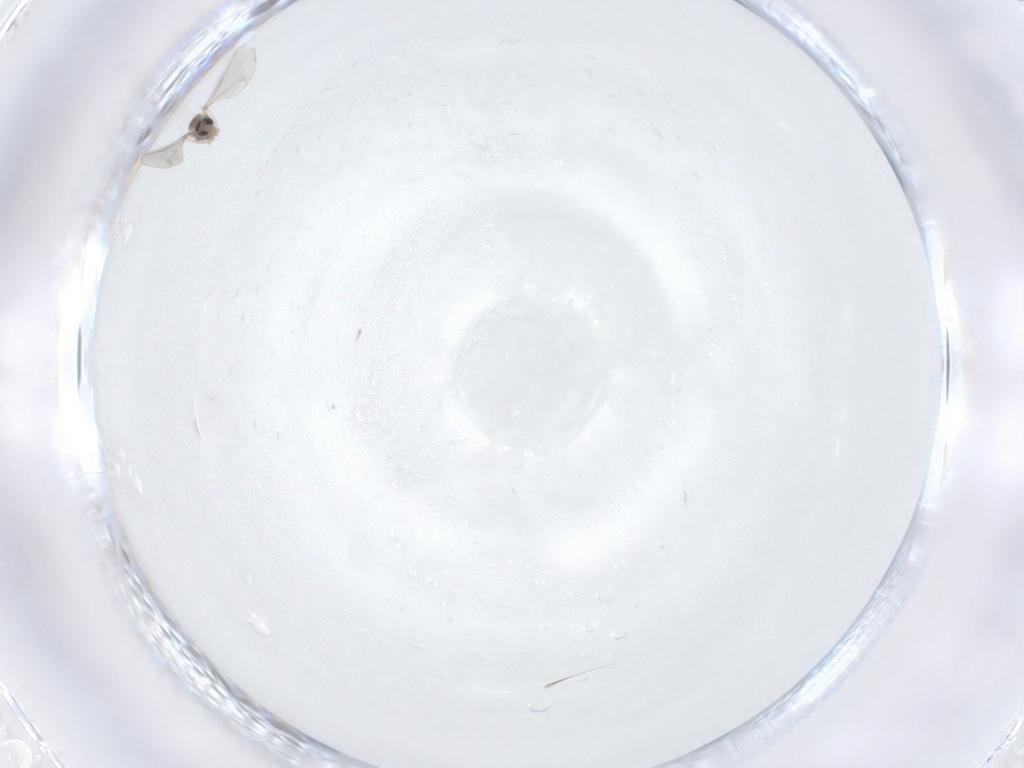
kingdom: Animalia
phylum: Arthropoda
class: Insecta
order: Diptera
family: Cecidomyiidae
